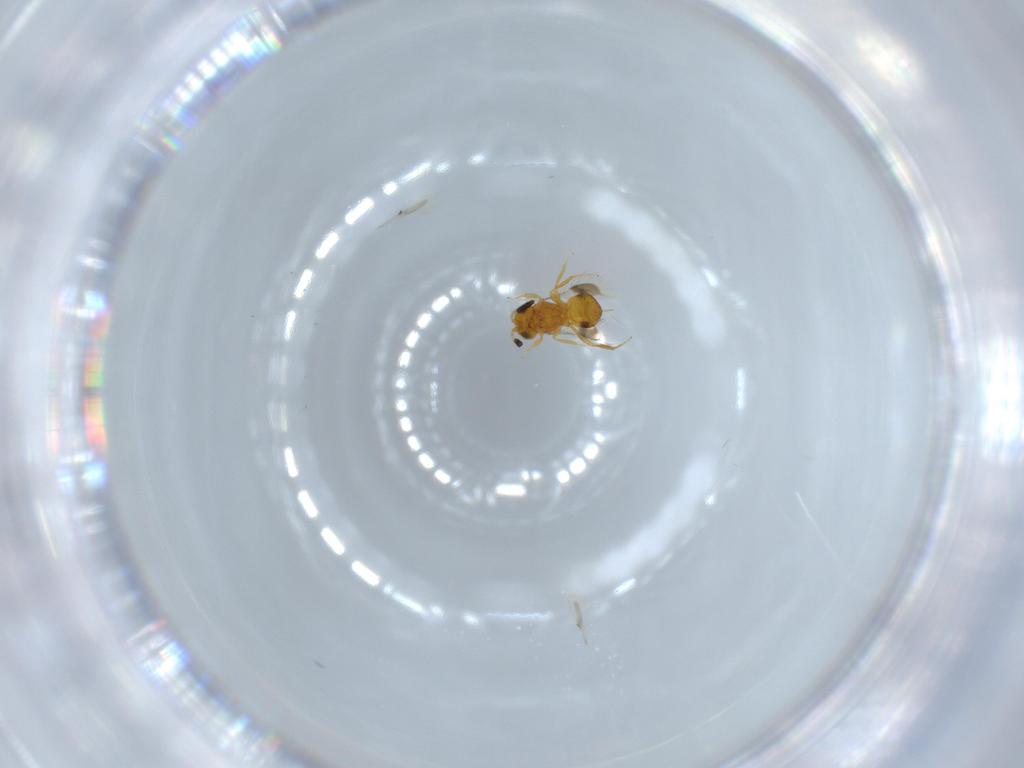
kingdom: Animalia
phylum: Arthropoda
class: Insecta
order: Hymenoptera
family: Scelionidae
